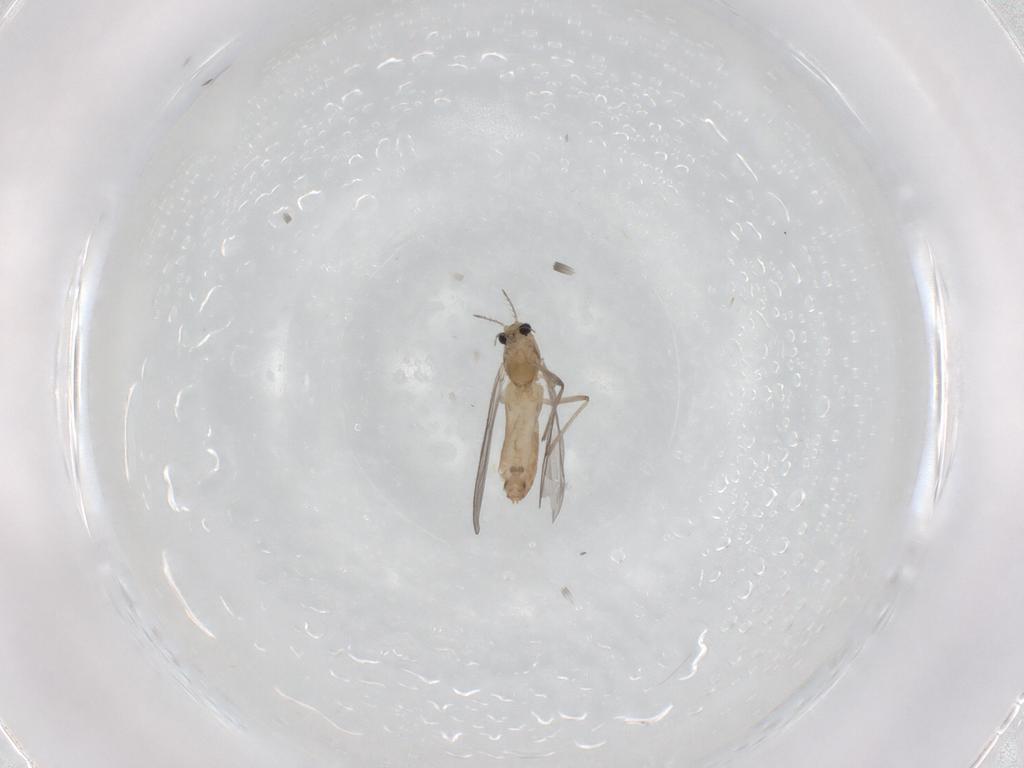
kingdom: Animalia
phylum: Arthropoda
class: Insecta
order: Diptera
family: Chironomidae
